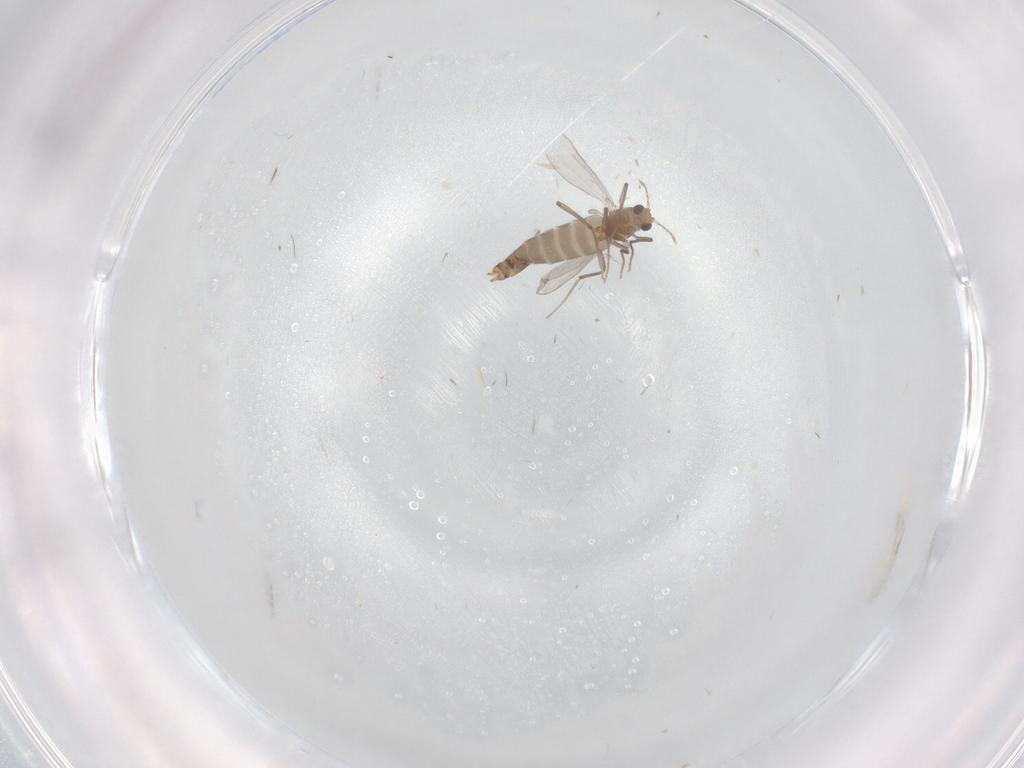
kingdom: Animalia
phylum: Arthropoda
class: Insecta
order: Diptera
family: Chironomidae
